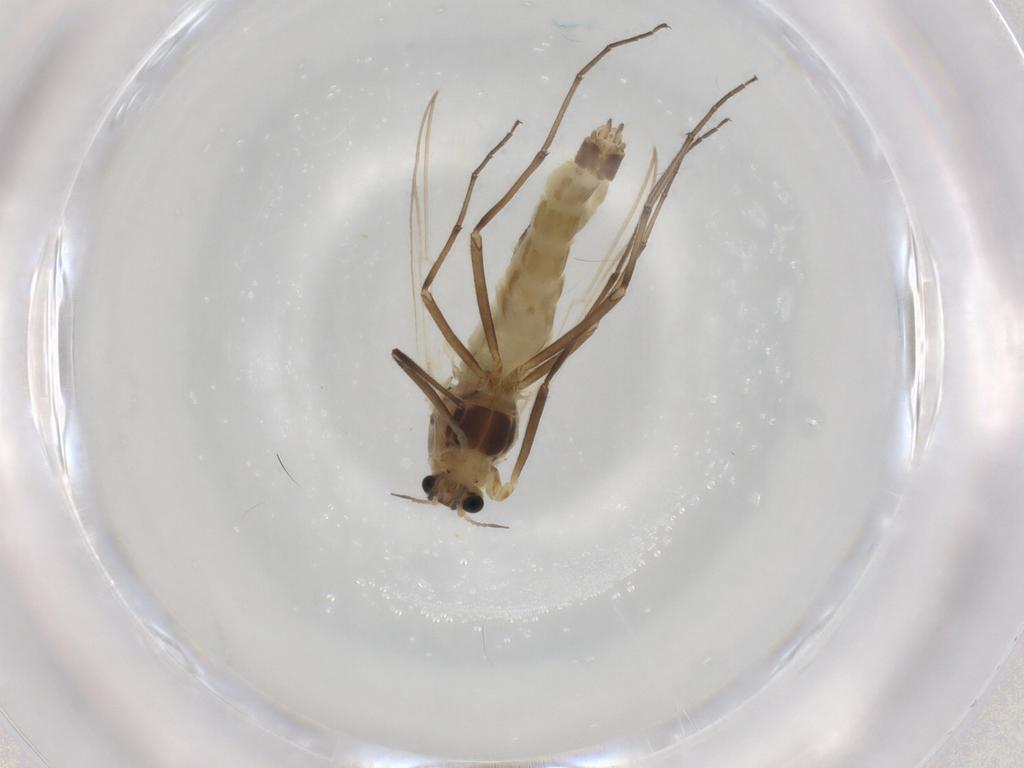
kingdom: Animalia
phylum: Arthropoda
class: Insecta
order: Diptera
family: Chironomidae
